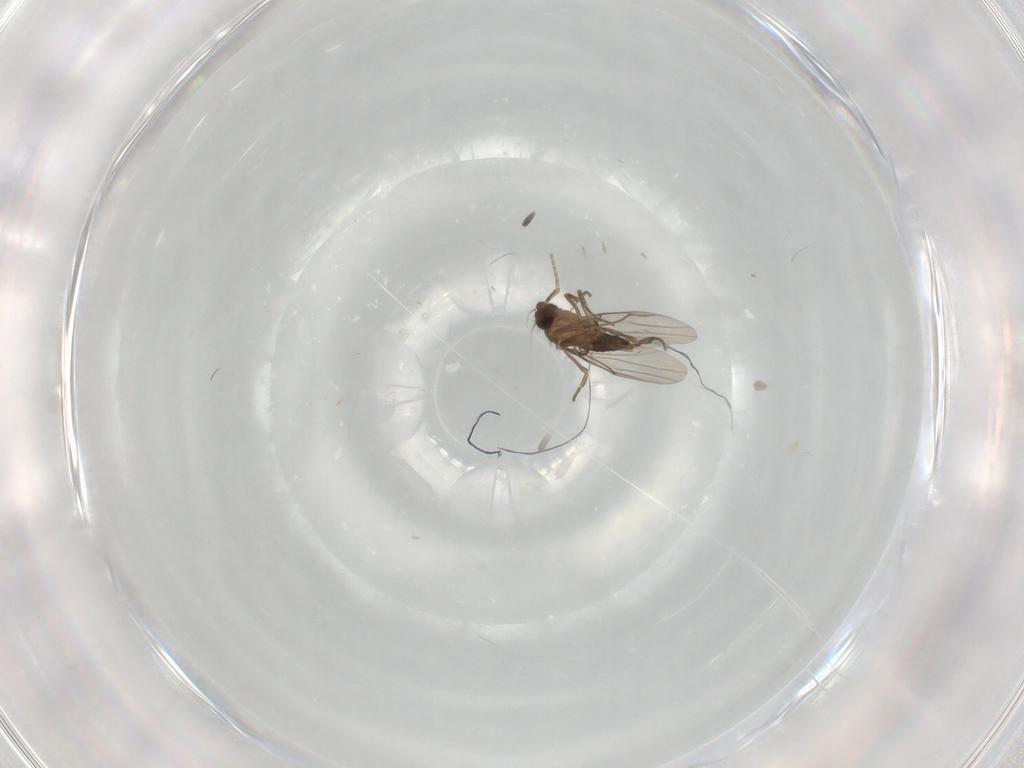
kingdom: Animalia
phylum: Arthropoda
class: Insecta
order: Diptera
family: Phoridae
